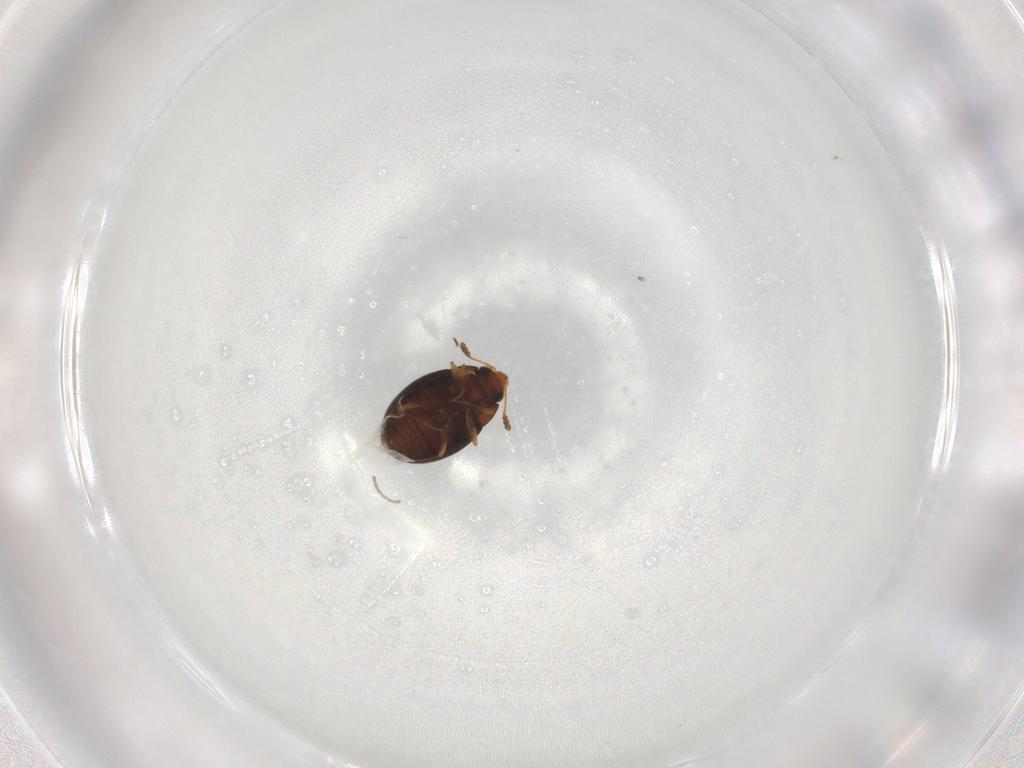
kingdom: Animalia
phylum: Arthropoda
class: Insecta
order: Coleoptera
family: Cryptophagidae
